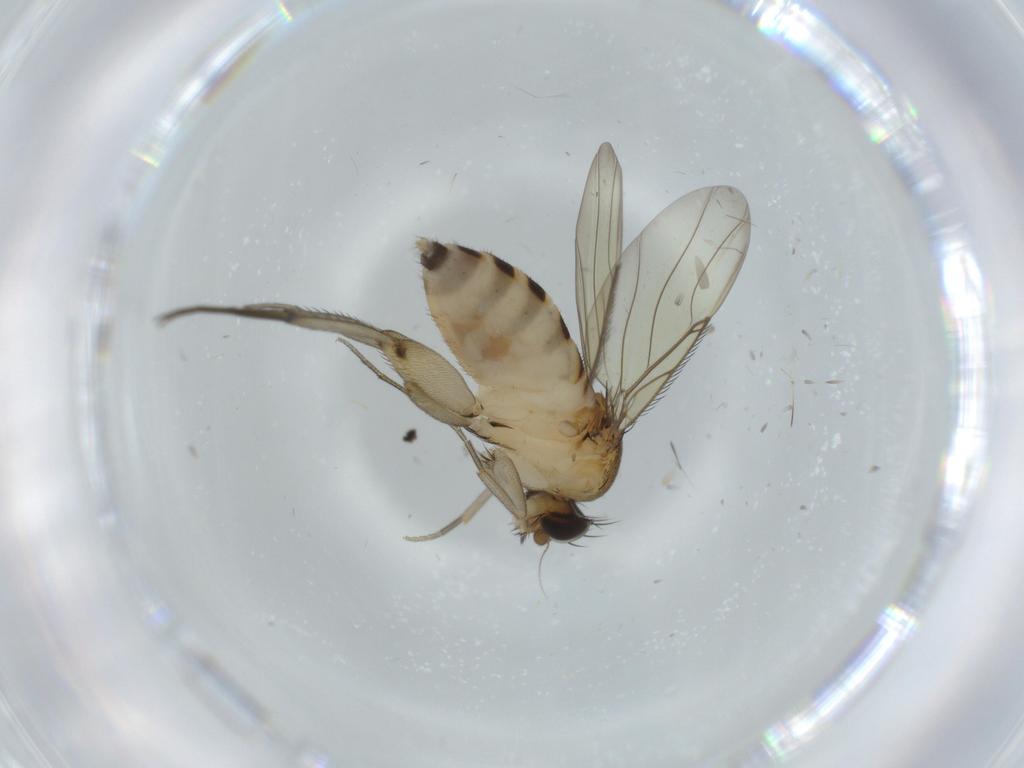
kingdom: Animalia
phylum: Arthropoda
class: Insecta
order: Diptera
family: Phoridae
